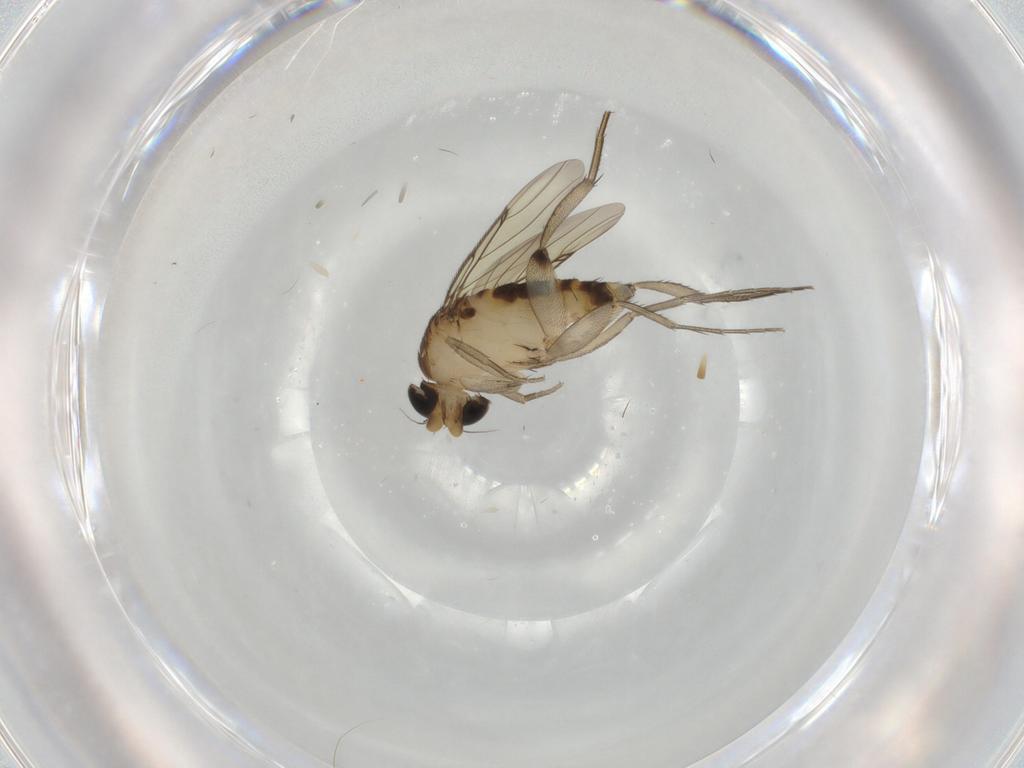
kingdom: Animalia
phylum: Arthropoda
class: Insecta
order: Diptera
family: Phoridae
